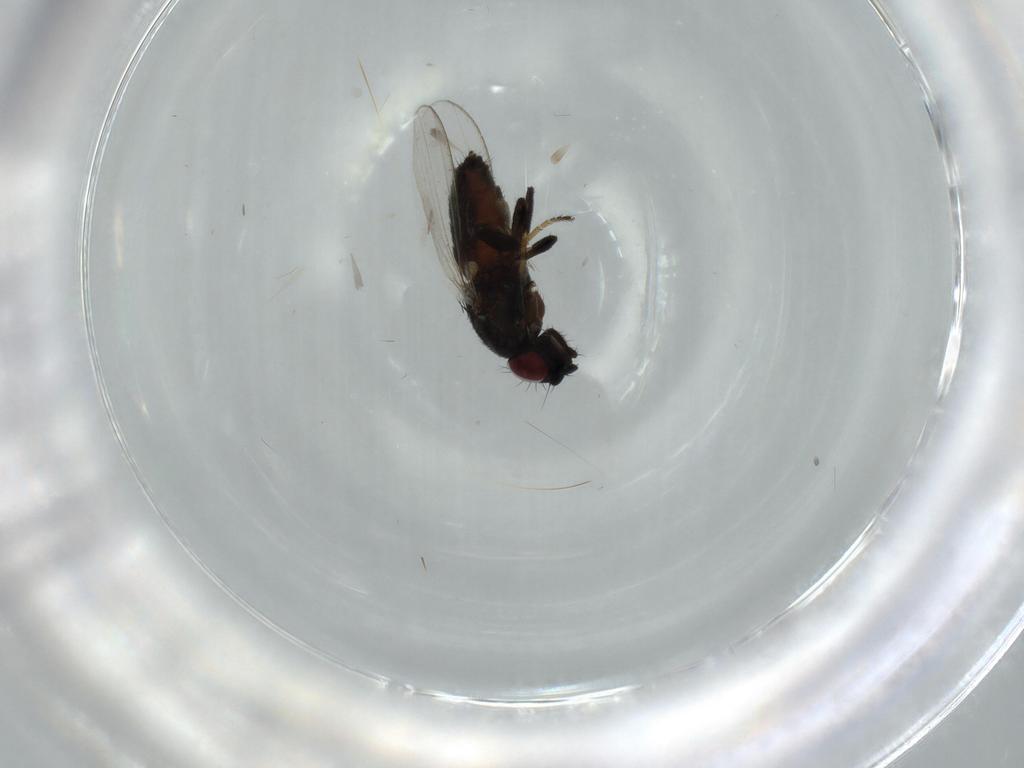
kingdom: Animalia
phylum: Arthropoda
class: Insecta
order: Diptera
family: Milichiidae
